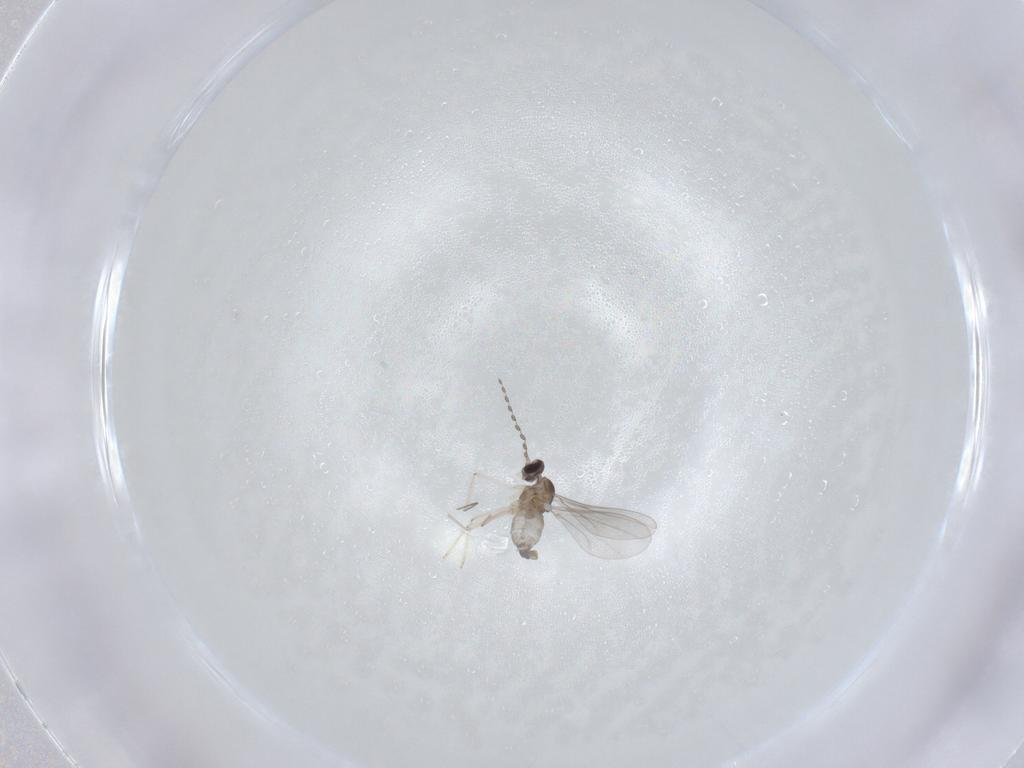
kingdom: Animalia
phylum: Arthropoda
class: Insecta
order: Diptera
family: Cecidomyiidae
